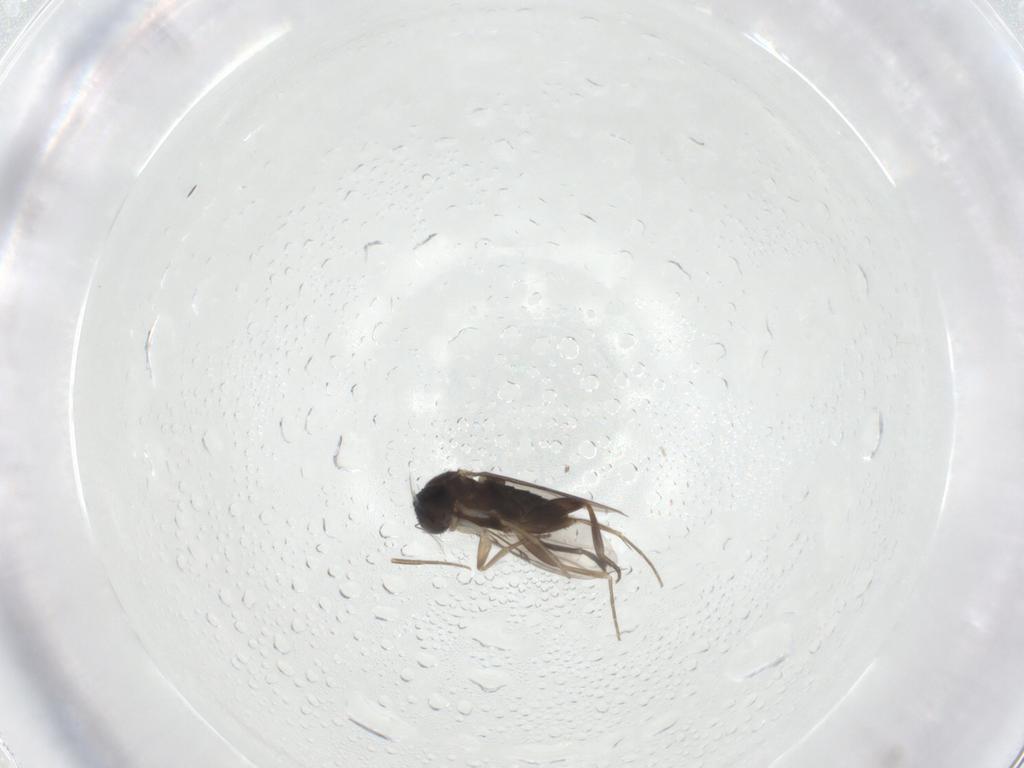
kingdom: Animalia
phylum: Arthropoda
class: Insecta
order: Diptera
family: Phoridae
